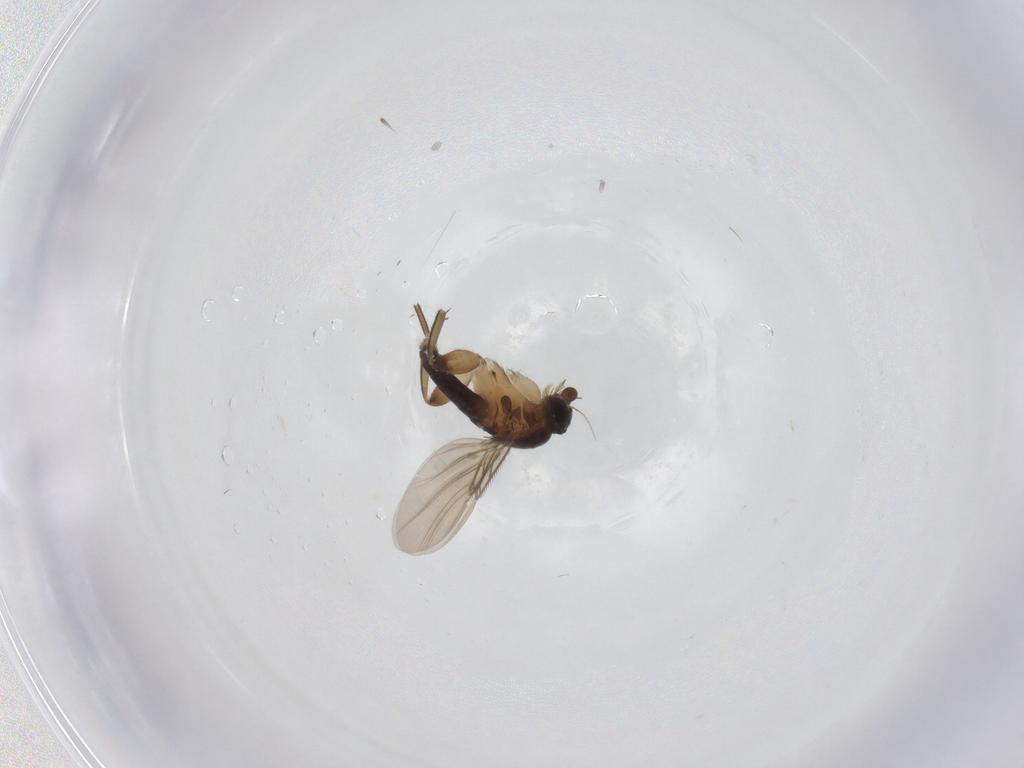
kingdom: Animalia
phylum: Arthropoda
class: Insecta
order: Diptera
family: Phoridae
